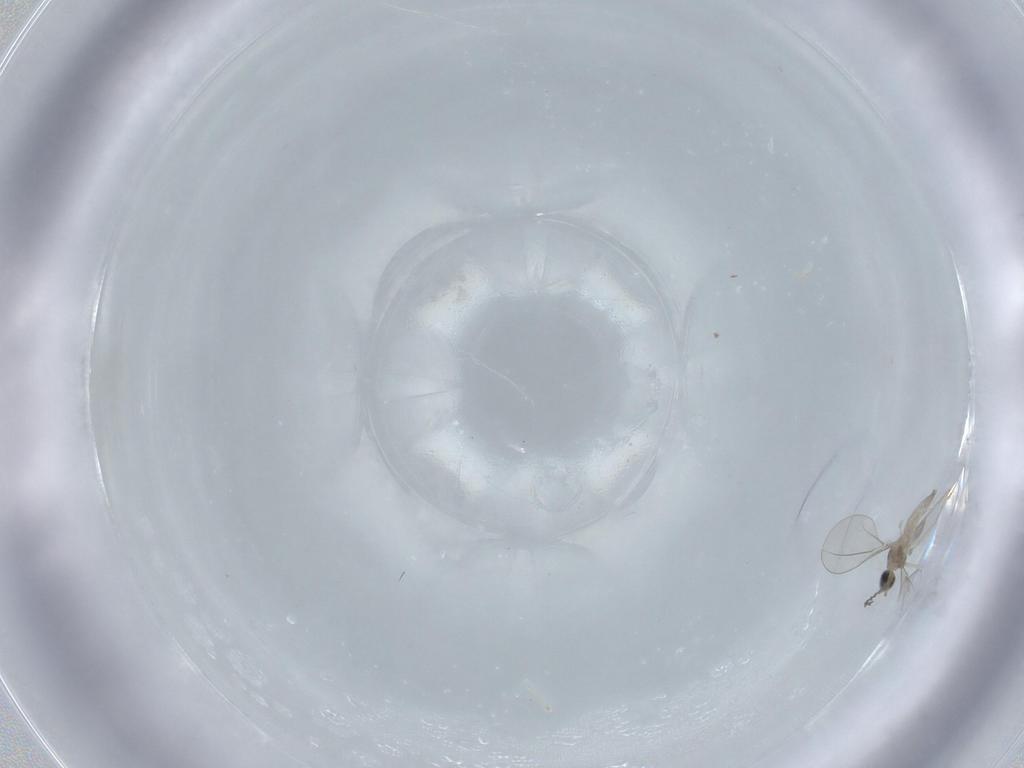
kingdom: Animalia
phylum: Arthropoda
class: Insecta
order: Diptera
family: Cecidomyiidae
